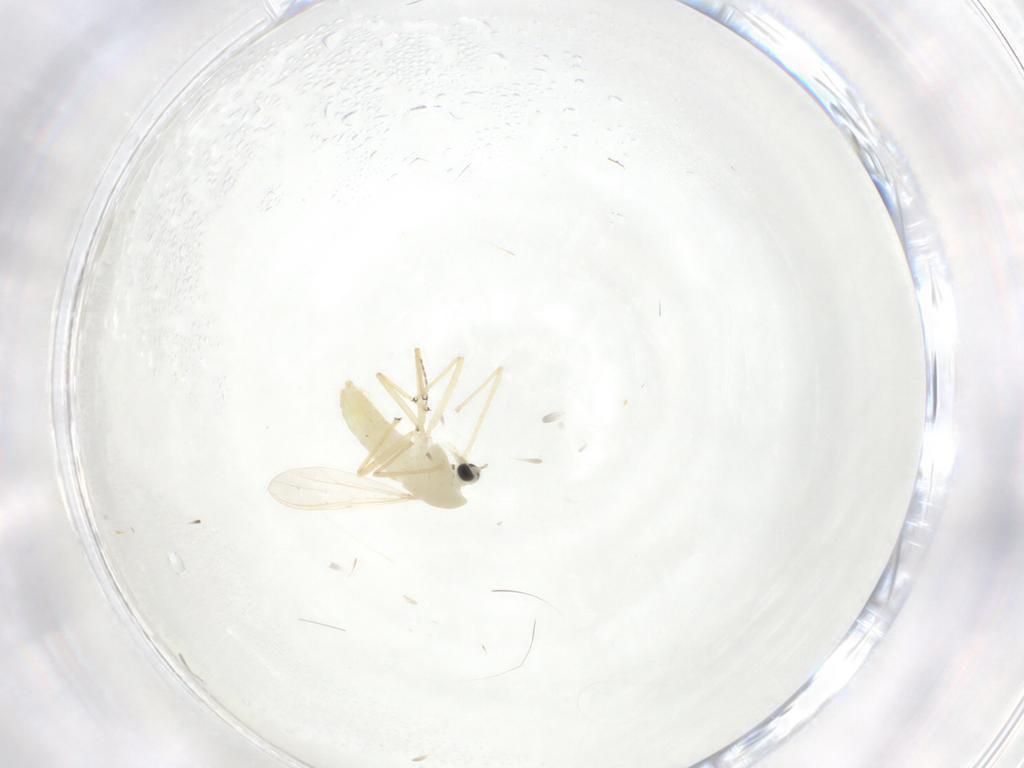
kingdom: Animalia
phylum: Arthropoda
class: Insecta
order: Diptera
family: Chironomidae
